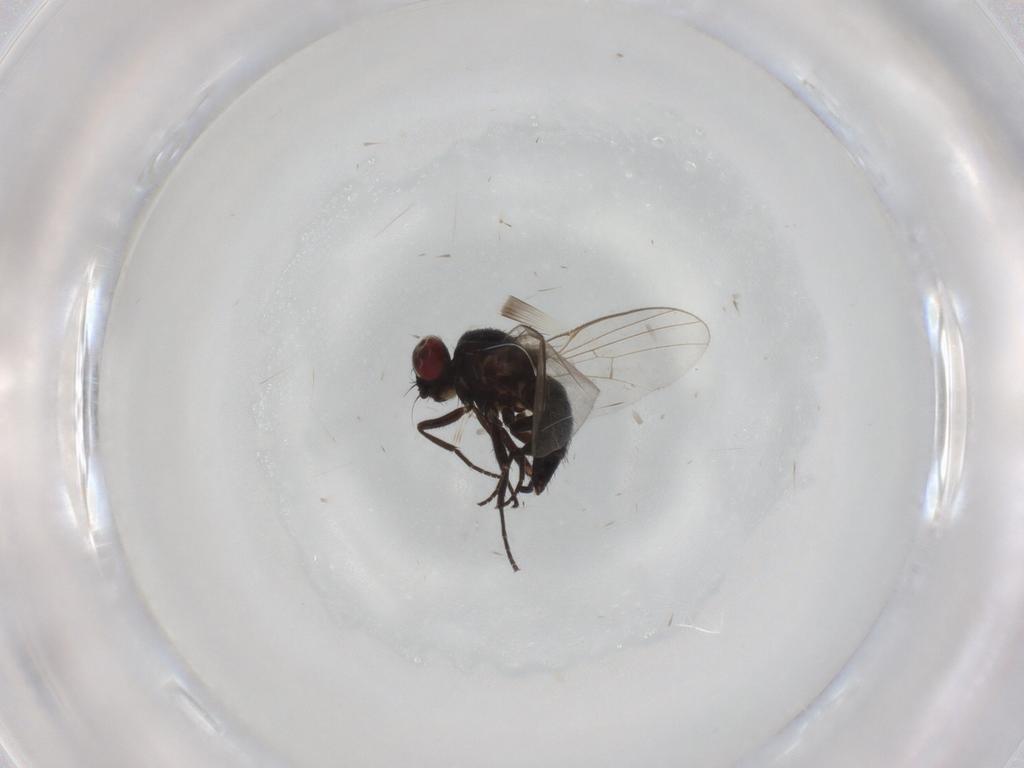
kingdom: Animalia
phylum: Arthropoda
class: Insecta
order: Diptera
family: Agromyzidae
